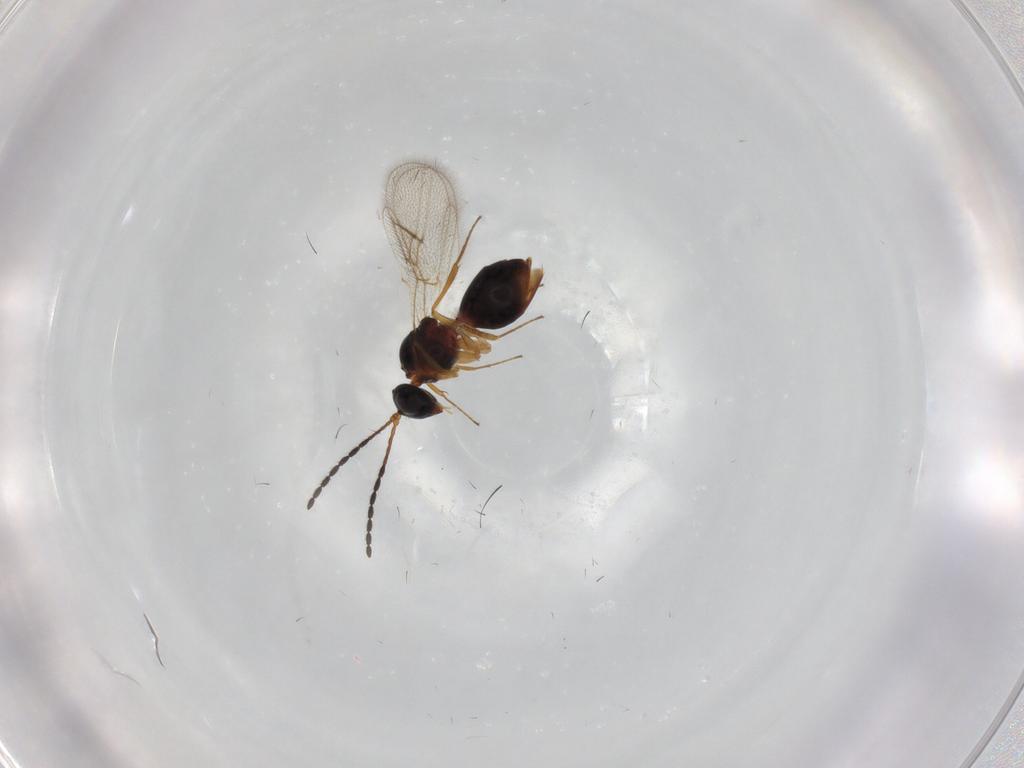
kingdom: Animalia
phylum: Arthropoda
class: Insecta
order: Hymenoptera
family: Figitidae
